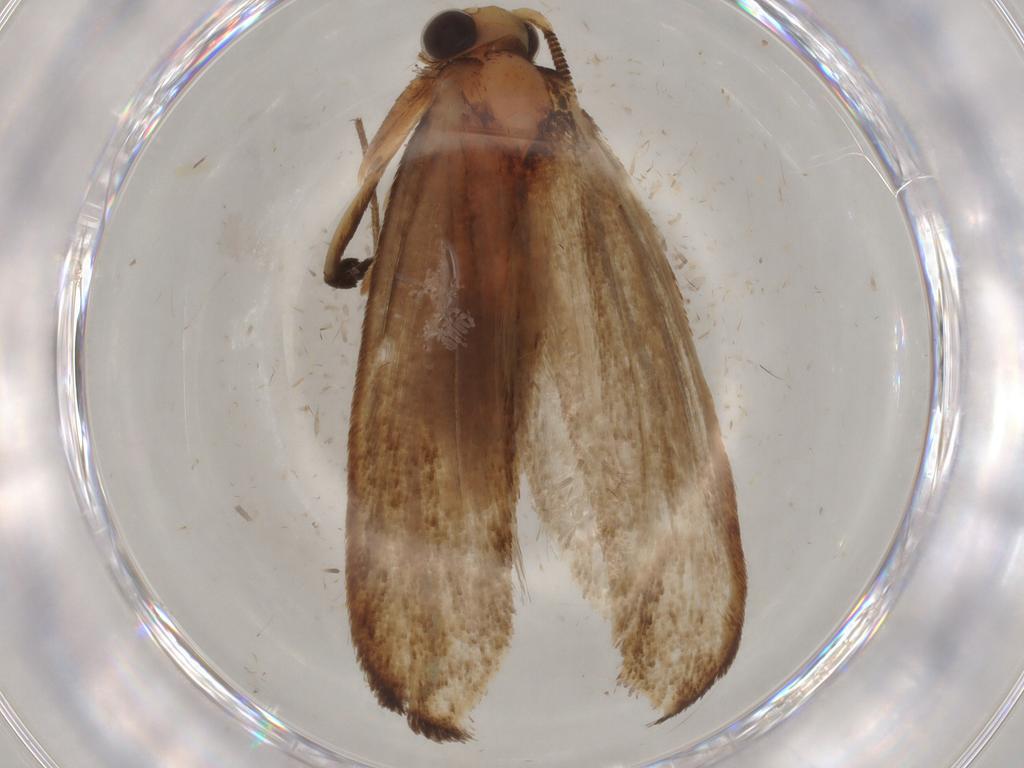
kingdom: Animalia
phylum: Arthropoda
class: Insecta
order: Lepidoptera
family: Tineidae
